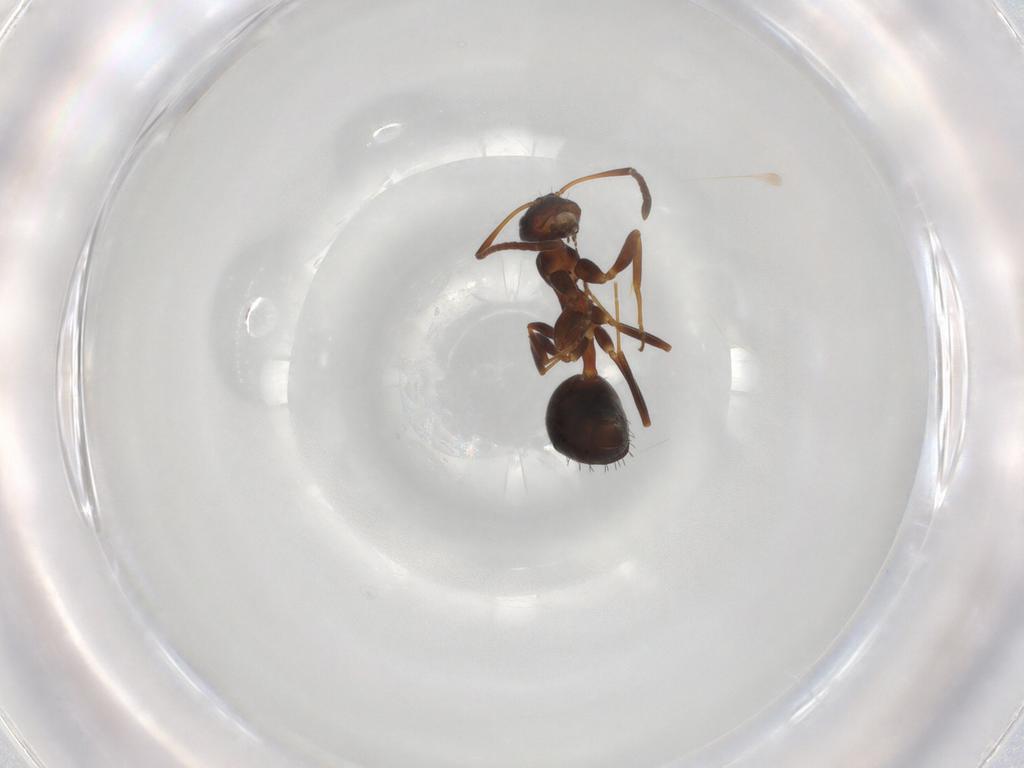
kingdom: Animalia
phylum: Arthropoda
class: Insecta
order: Hymenoptera
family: Formicidae
